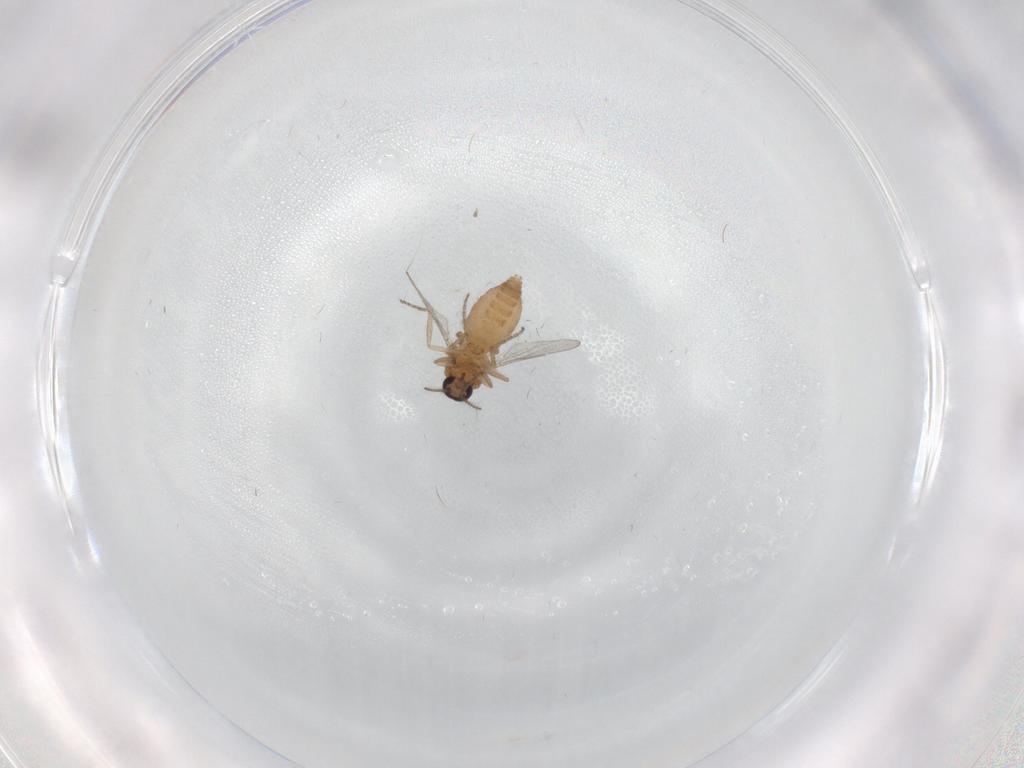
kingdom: Animalia
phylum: Arthropoda
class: Insecta
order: Diptera
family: Ceratopogonidae
